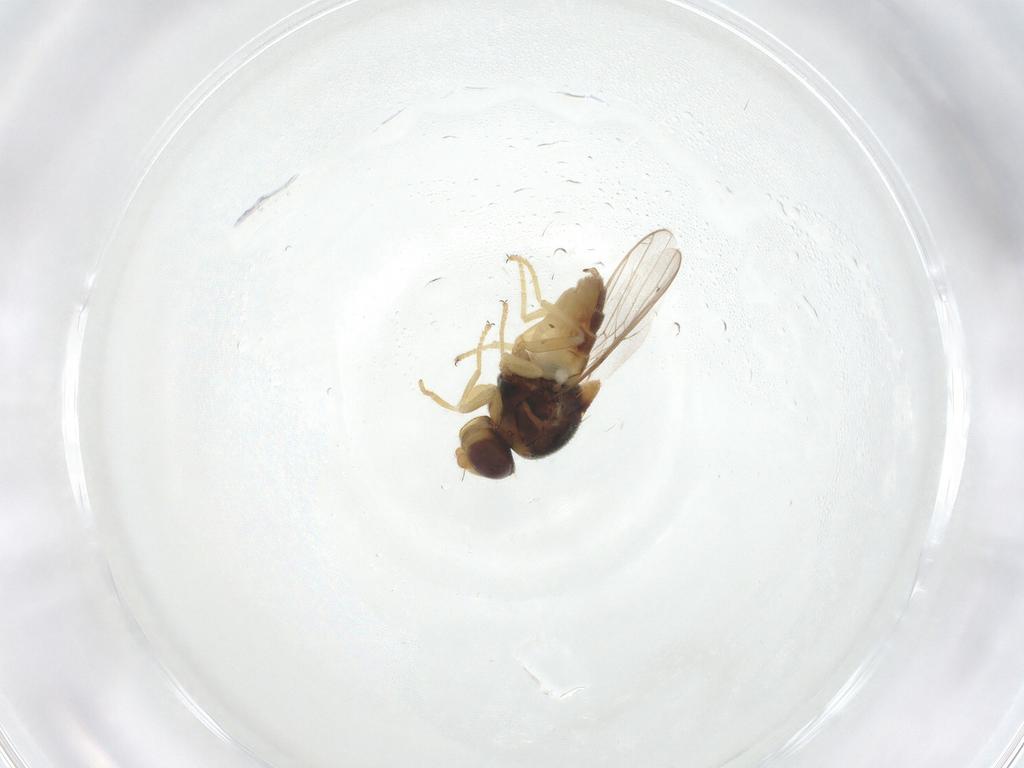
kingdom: Animalia
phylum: Arthropoda
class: Insecta
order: Diptera
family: Chloropidae
